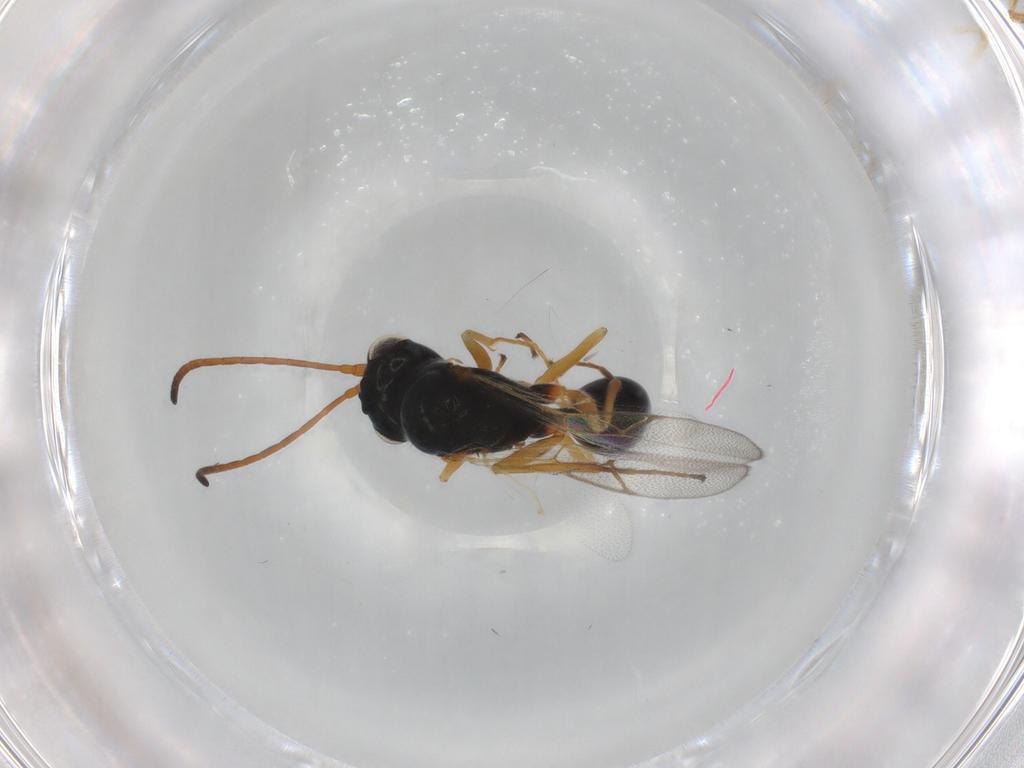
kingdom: Animalia
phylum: Arthropoda
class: Insecta
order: Hymenoptera
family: Figitidae
